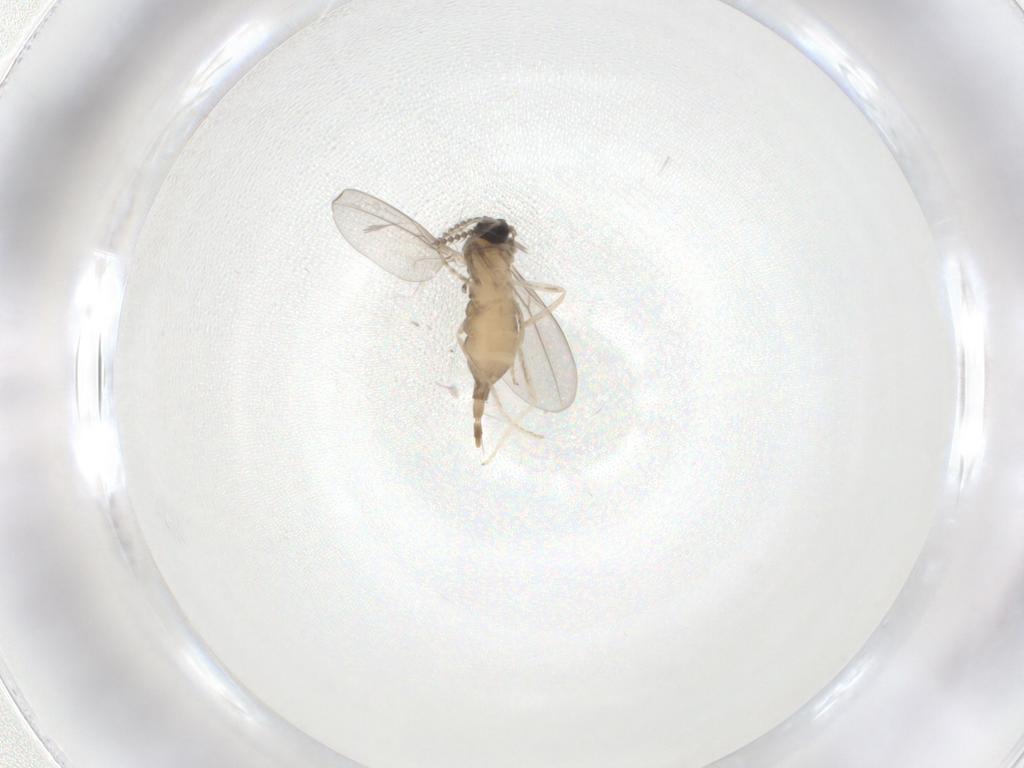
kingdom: Animalia
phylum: Arthropoda
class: Insecta
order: Diptera
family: Cecidomyiidae
